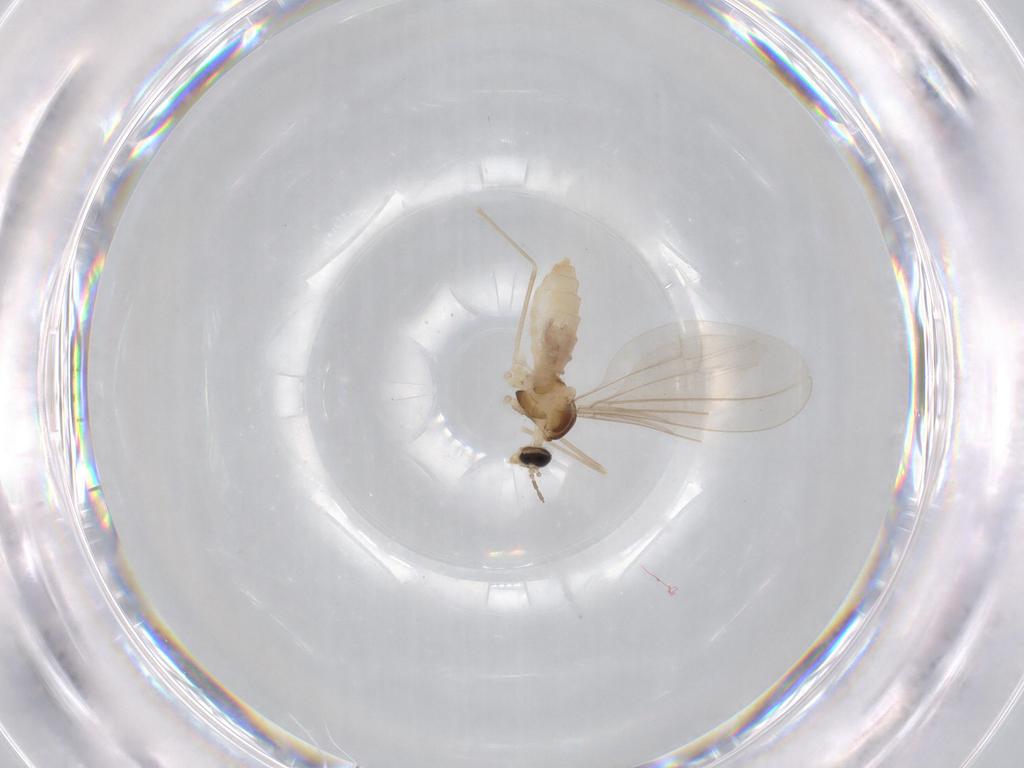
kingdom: Animalia
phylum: Arthropoda
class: Insecta
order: Diptera
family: Cecidomyiidae
